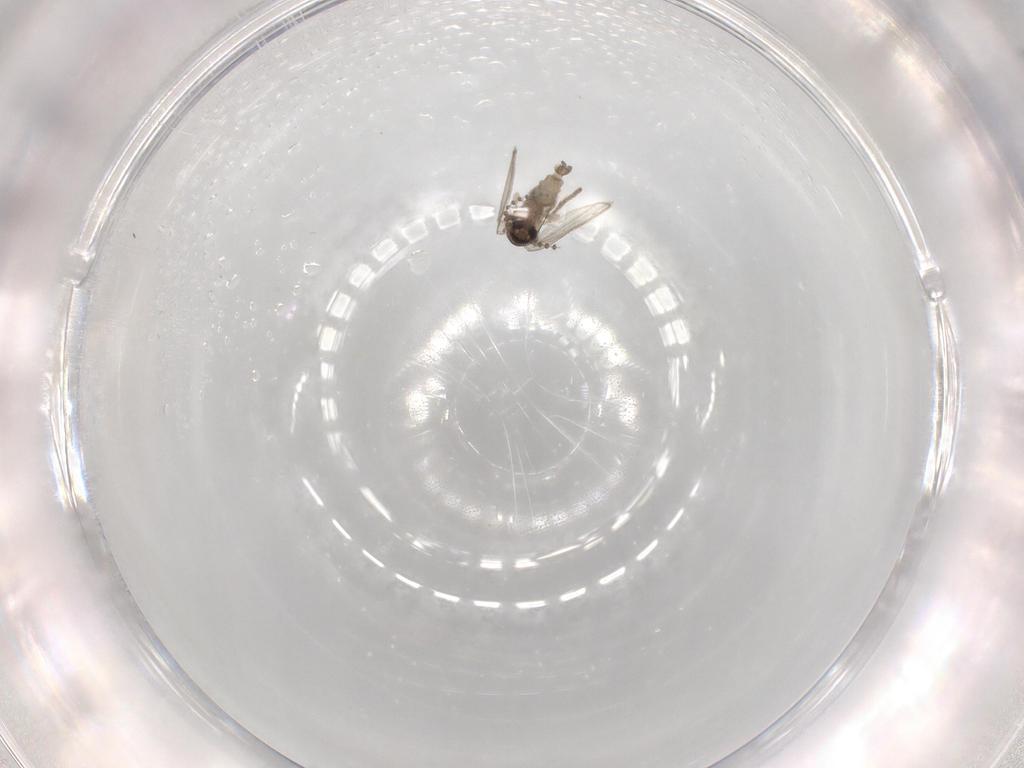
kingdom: Animalia
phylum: Arthropoda
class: Insecta
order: Diptera
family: Psychodidae
